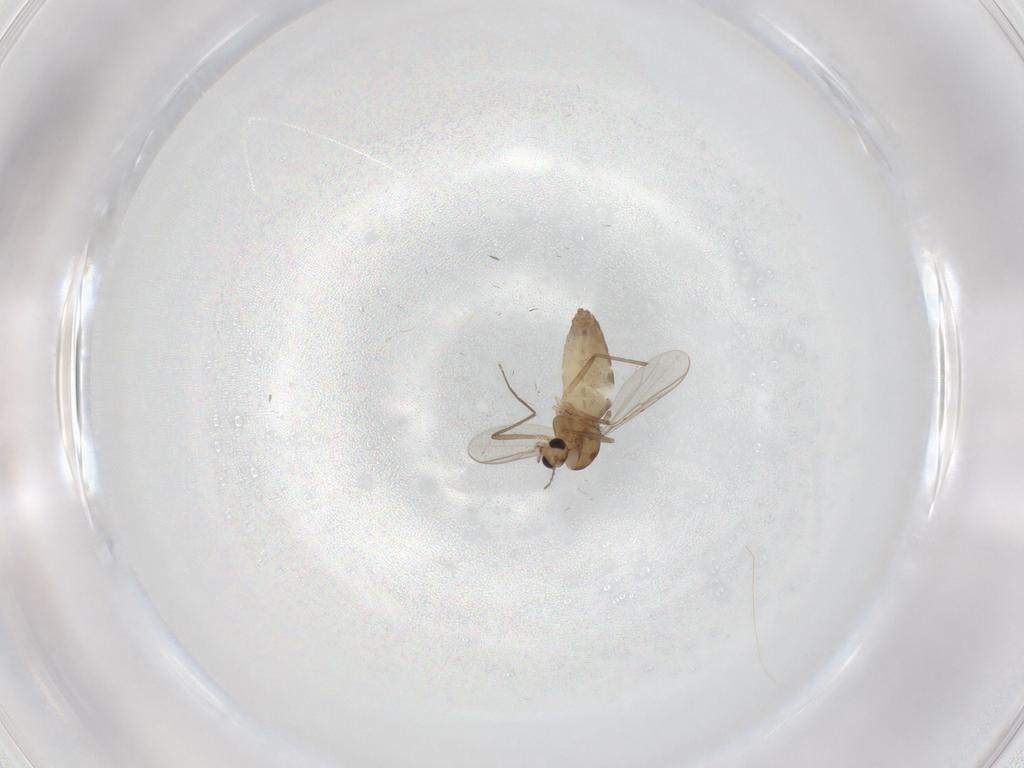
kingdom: Animalia
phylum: Arthropoda
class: Insecta
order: Diptera
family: Chironomidae
